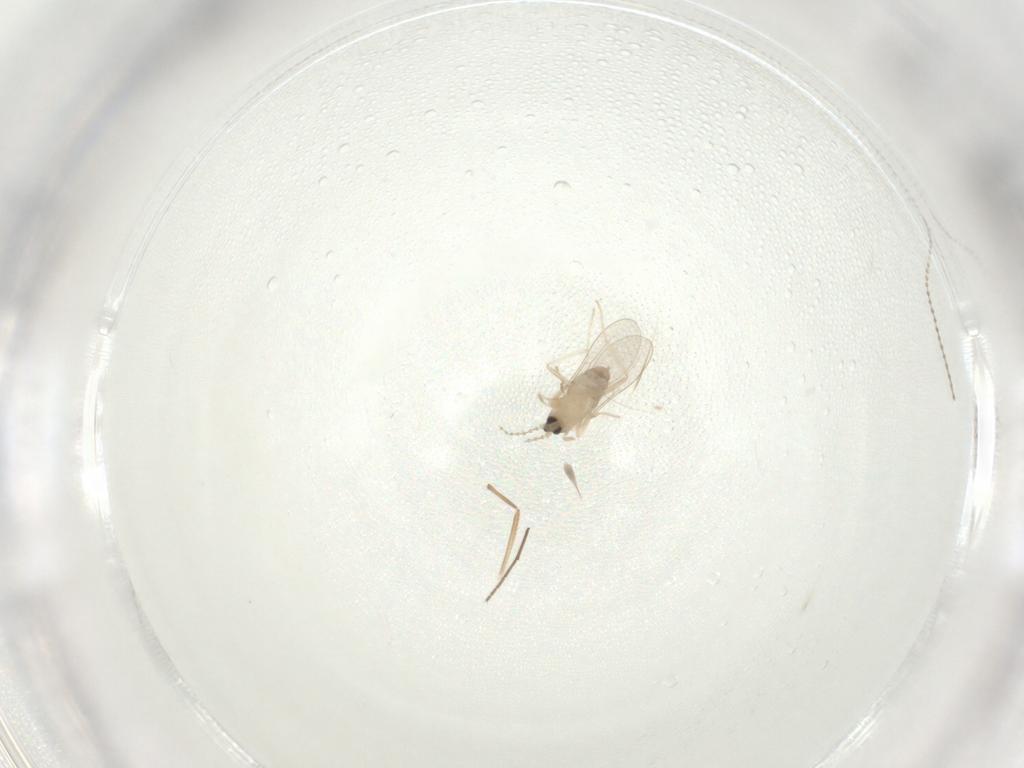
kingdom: Animalia
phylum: Arthropoda
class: Insecta
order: Diptera
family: Cecidomyiidae
